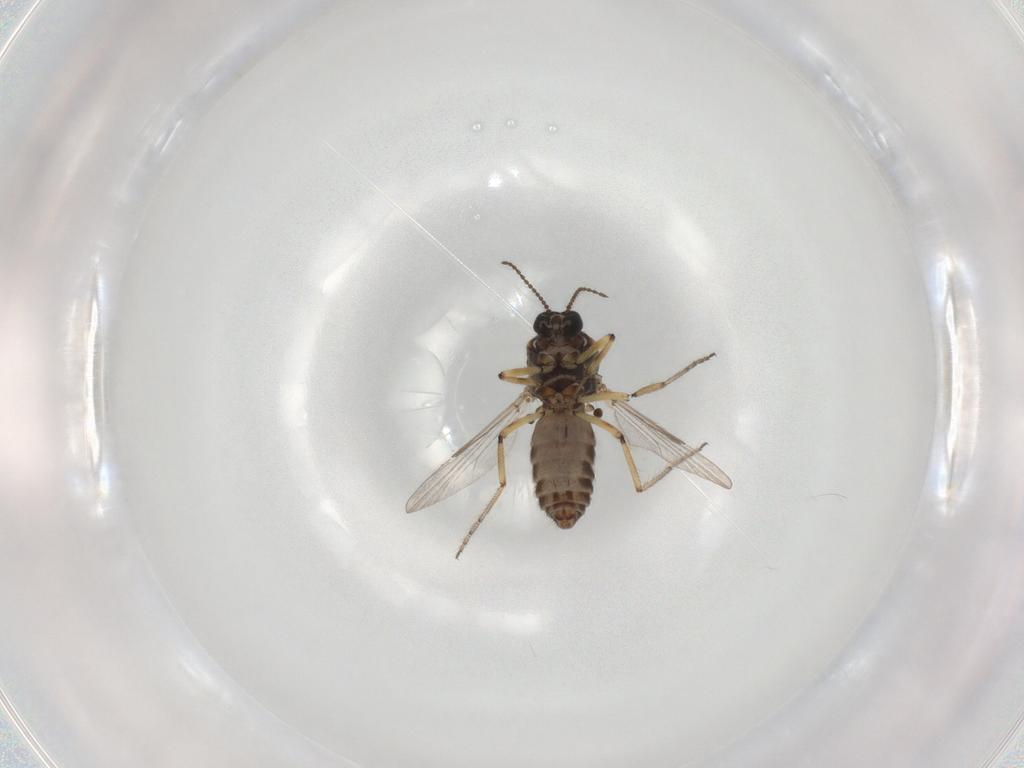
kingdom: Animalia
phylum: Arthropoda
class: Insecta
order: Diptera
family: Ceratopogonidae
